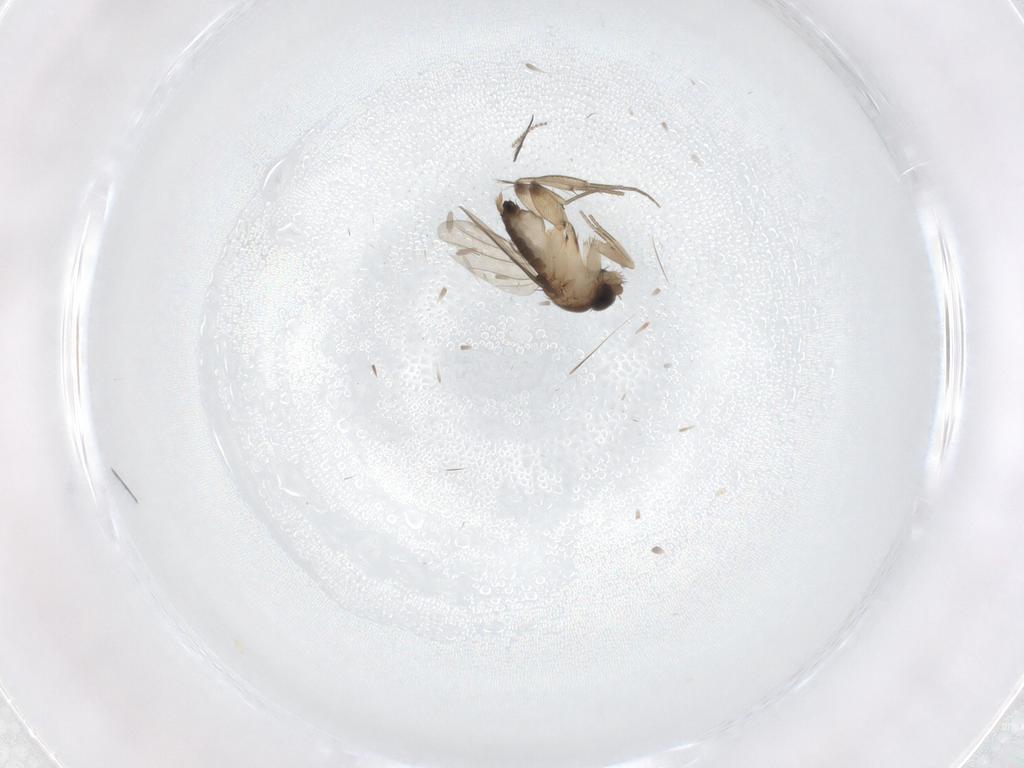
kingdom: Animalia
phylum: Arthropoda
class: Insecta
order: Diptera
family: Phoridae
